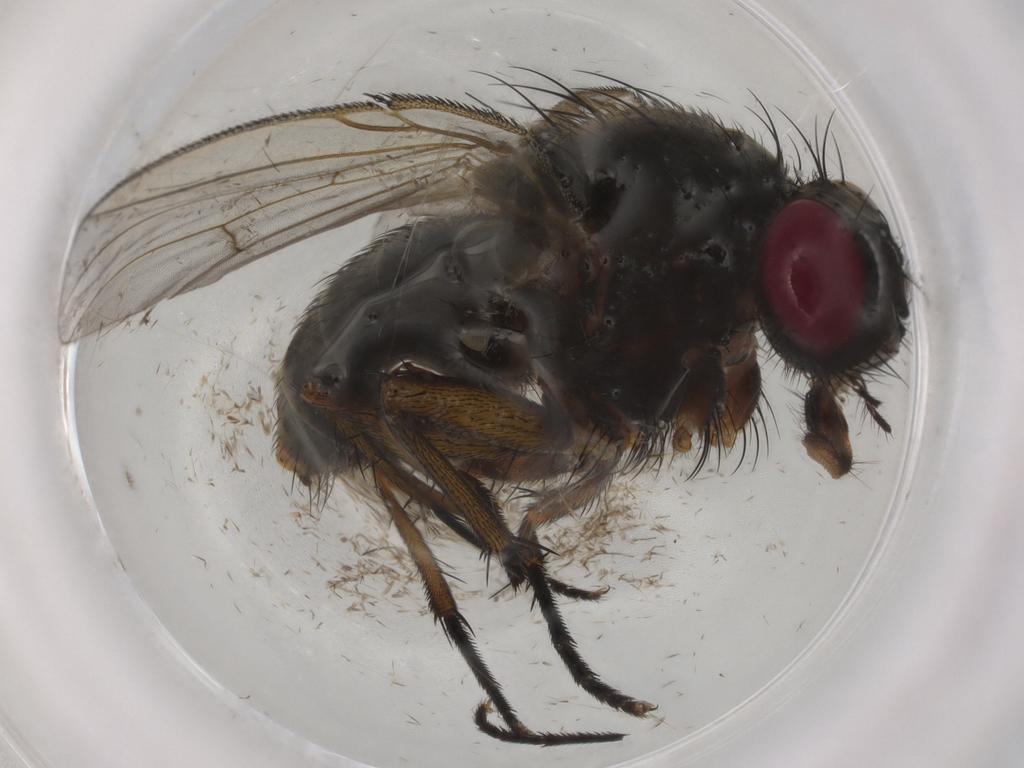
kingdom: Animalia
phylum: Arthropoda
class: Insecta
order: Diptera
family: Muscidae
